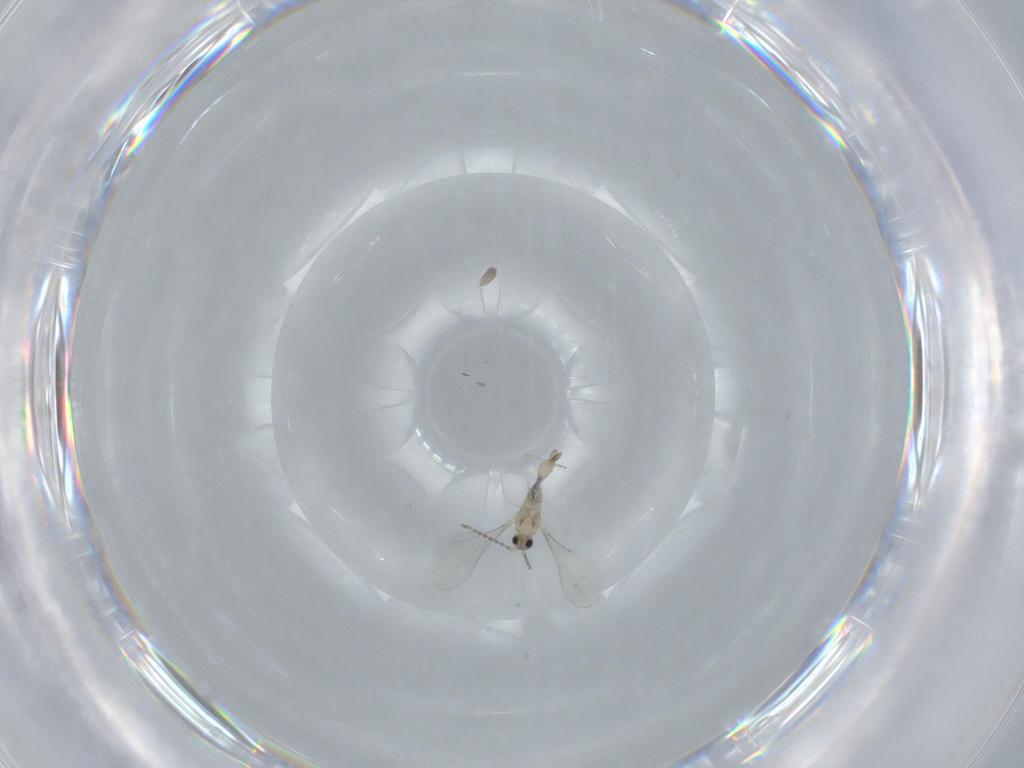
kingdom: Animalia
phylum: Arthropoda
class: Insecta
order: Diptera
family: Cecidomyiidae
